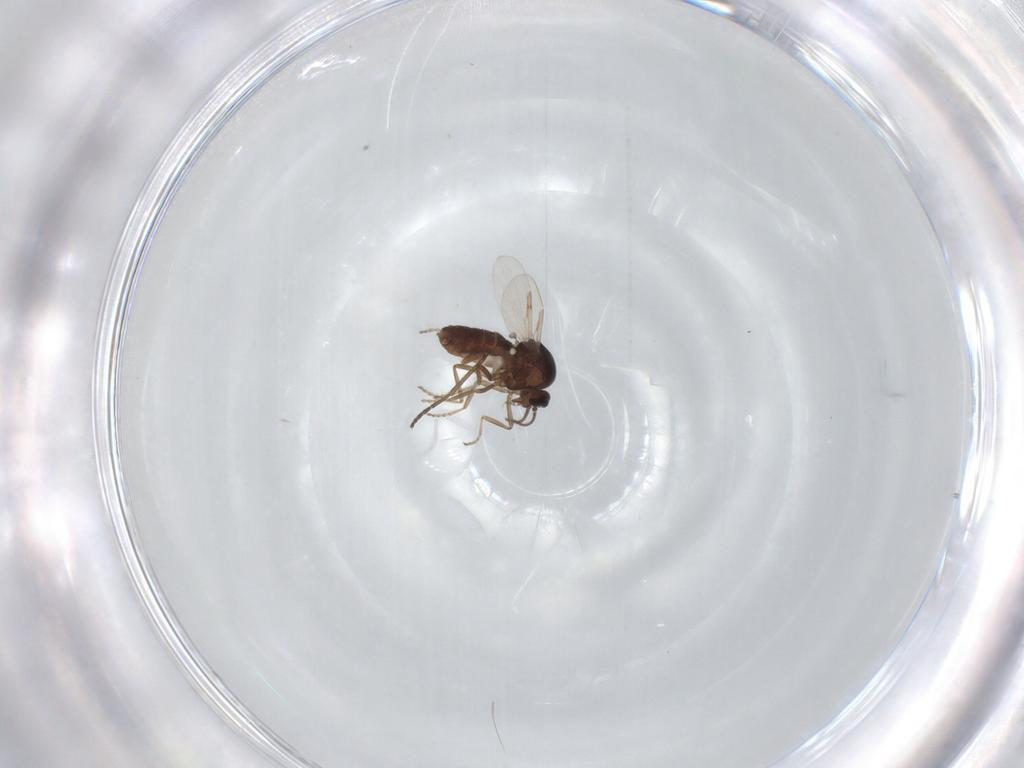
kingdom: Animalia
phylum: Arthropoda
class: Insecta
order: Diptera
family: Ceratopogonidae
